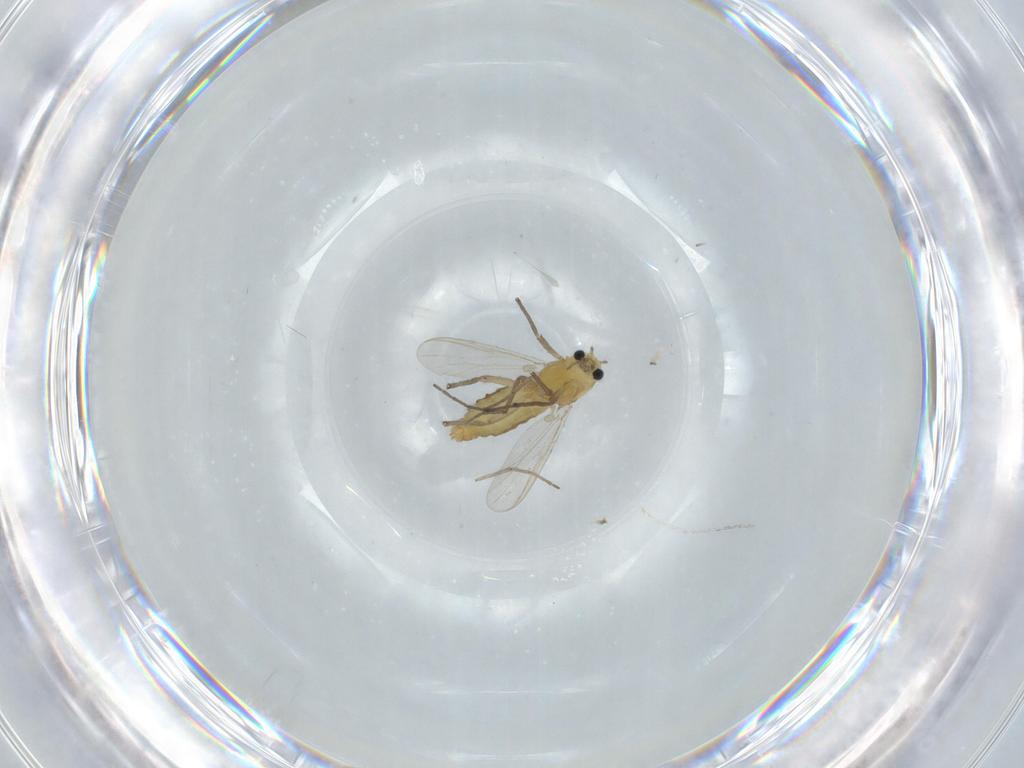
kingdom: Animalia
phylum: Arthropoda
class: Insecta
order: Diptera
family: Chironomidae
